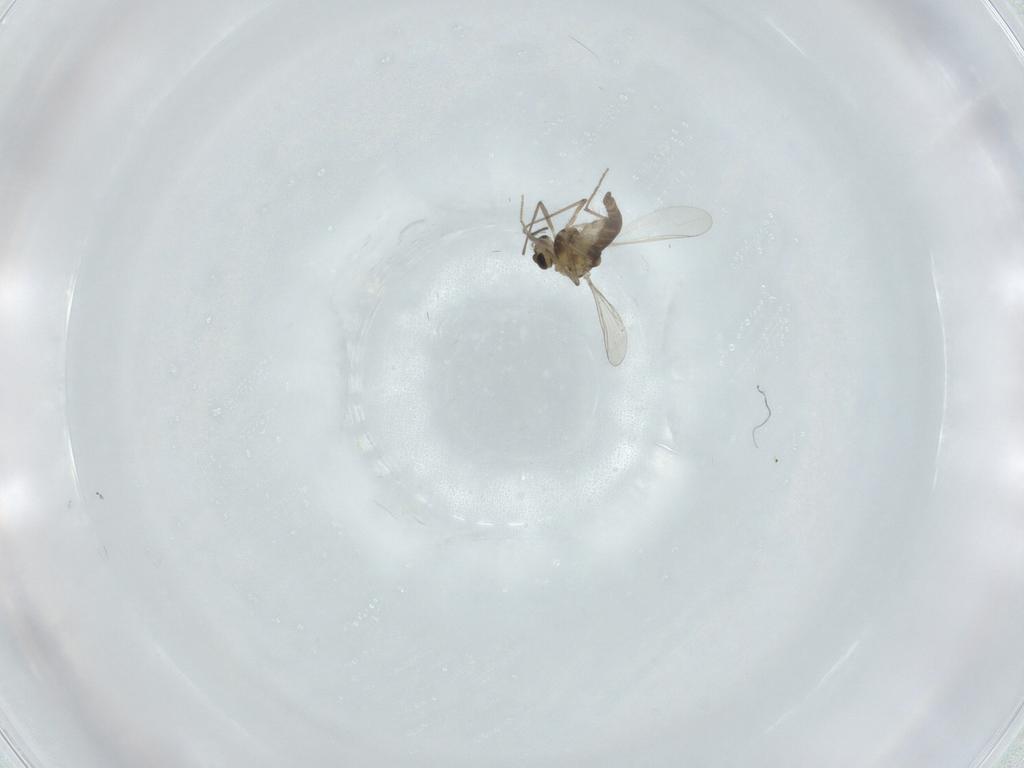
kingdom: Animalia
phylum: Arthropoda
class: Insecta
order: Diptera
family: Chironomidae
